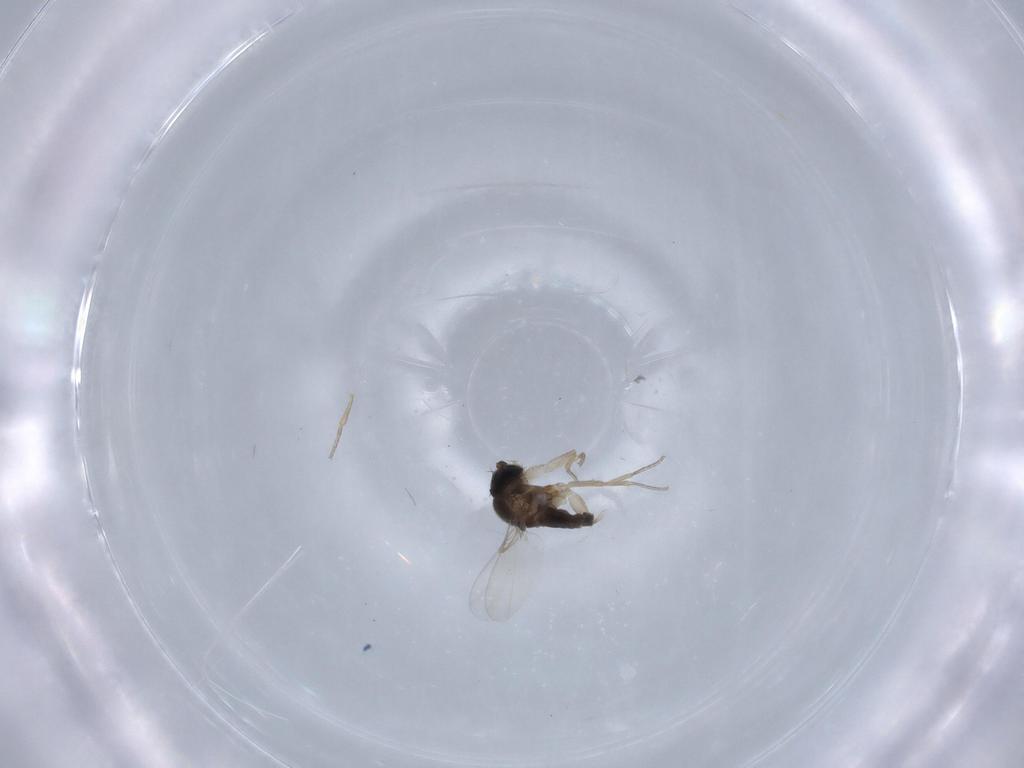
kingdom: Animalia
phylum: Arthropoda
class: Insecta
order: Diptera
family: Phoridae
